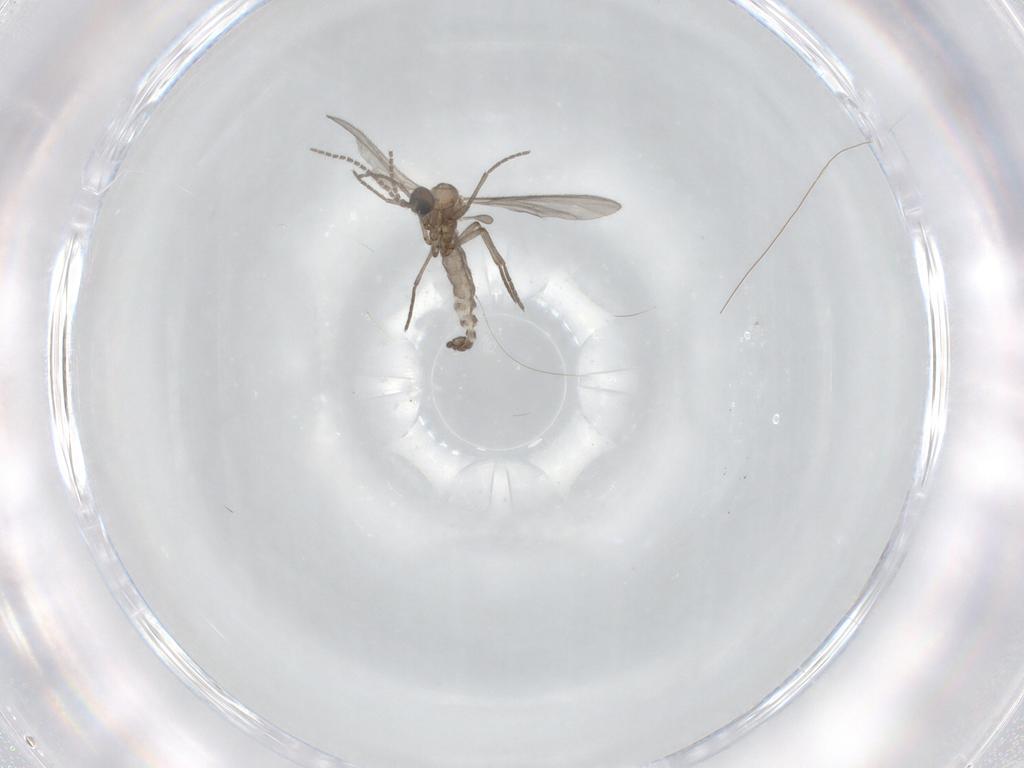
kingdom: Animalia
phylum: Arthropoda
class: Insecta
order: Diptera
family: Sciaridae
